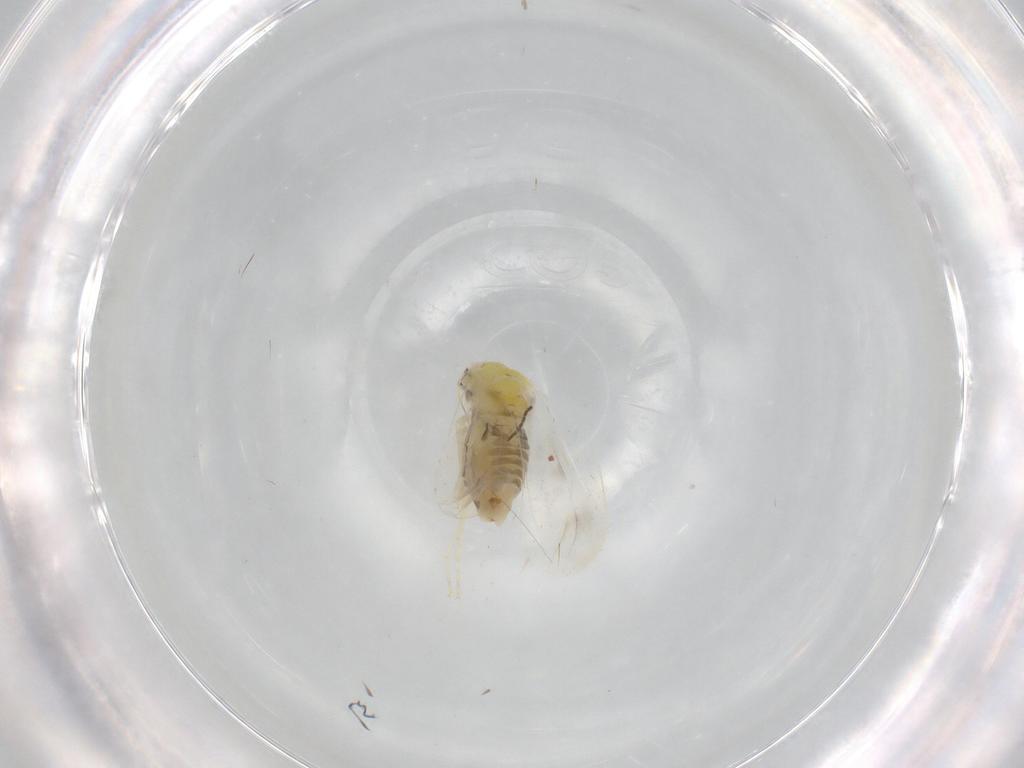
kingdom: Animalia
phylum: Arthropoda
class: Insecta
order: Hemiptera
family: Aleyrodidae
